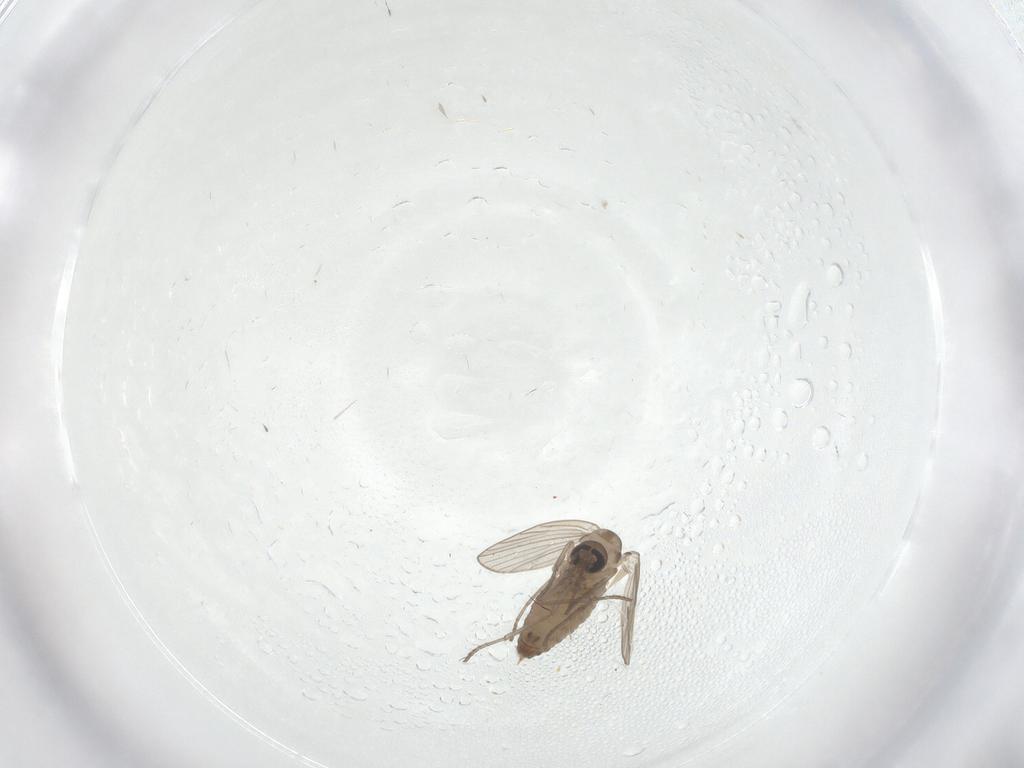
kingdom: Animalia
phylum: Arthropoda
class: Insecta
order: Diptera
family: Psychodidae
